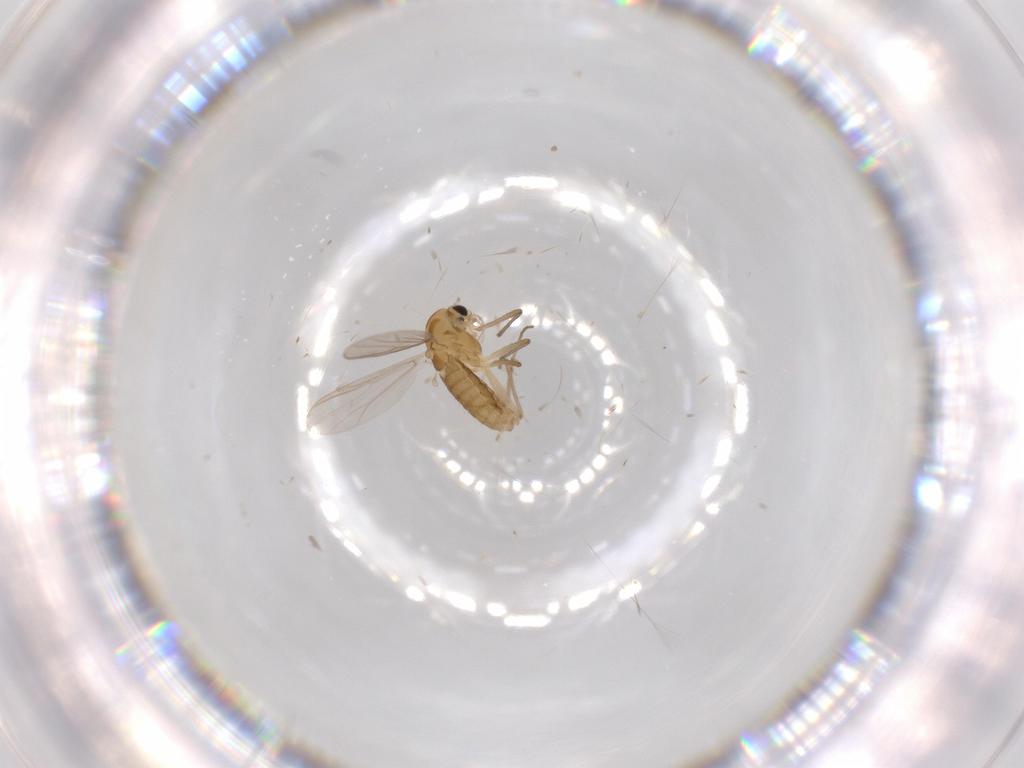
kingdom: Animalia
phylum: Arthropoda
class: Insecta
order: Diptera
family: Chironomidae
